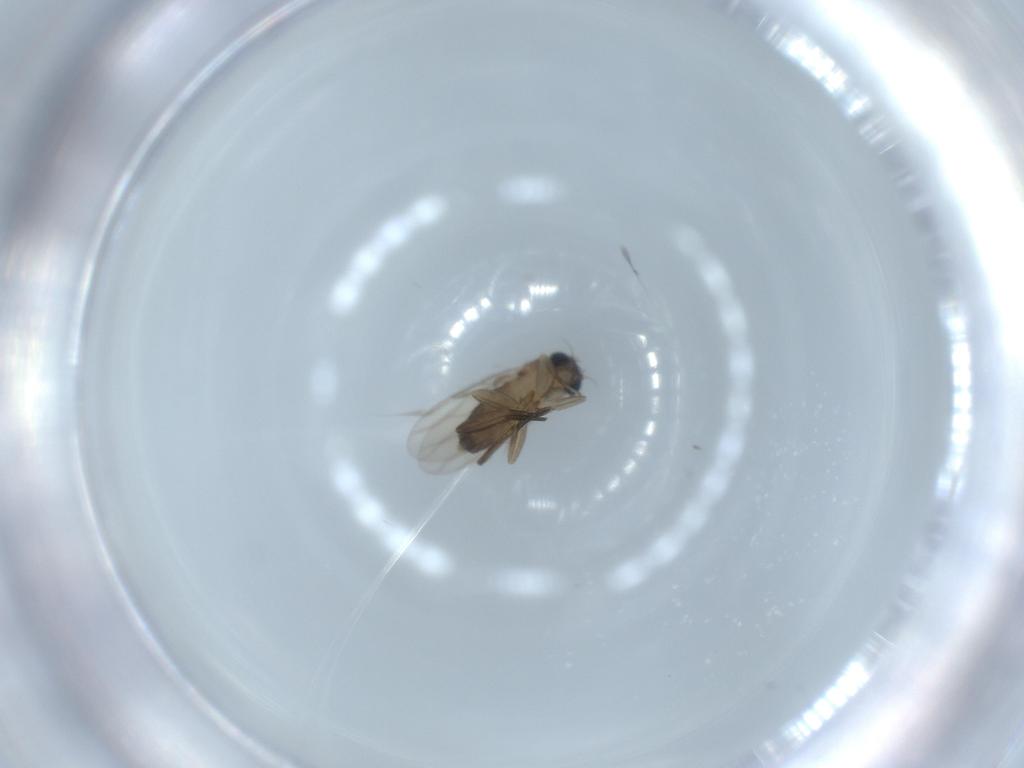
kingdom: Animalia
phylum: Arthropoda
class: Insecta
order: Diptera
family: Phoridae
